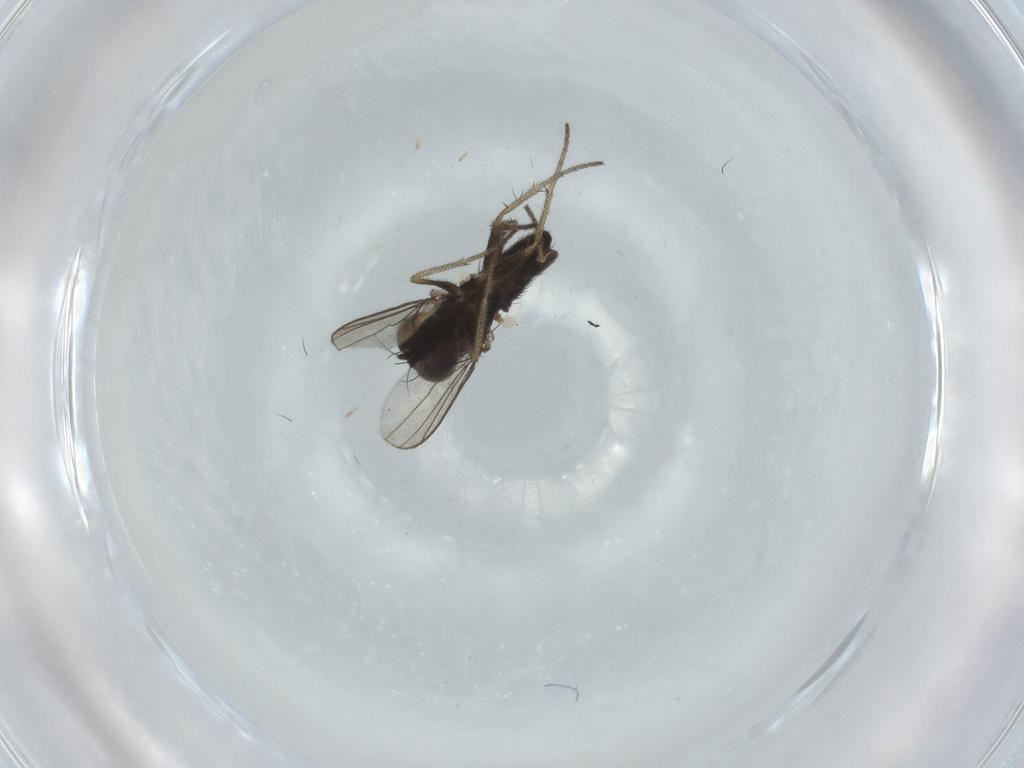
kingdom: Animalia
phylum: Arthropoda
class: Insecta
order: Diptera
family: Dolichopodidae
